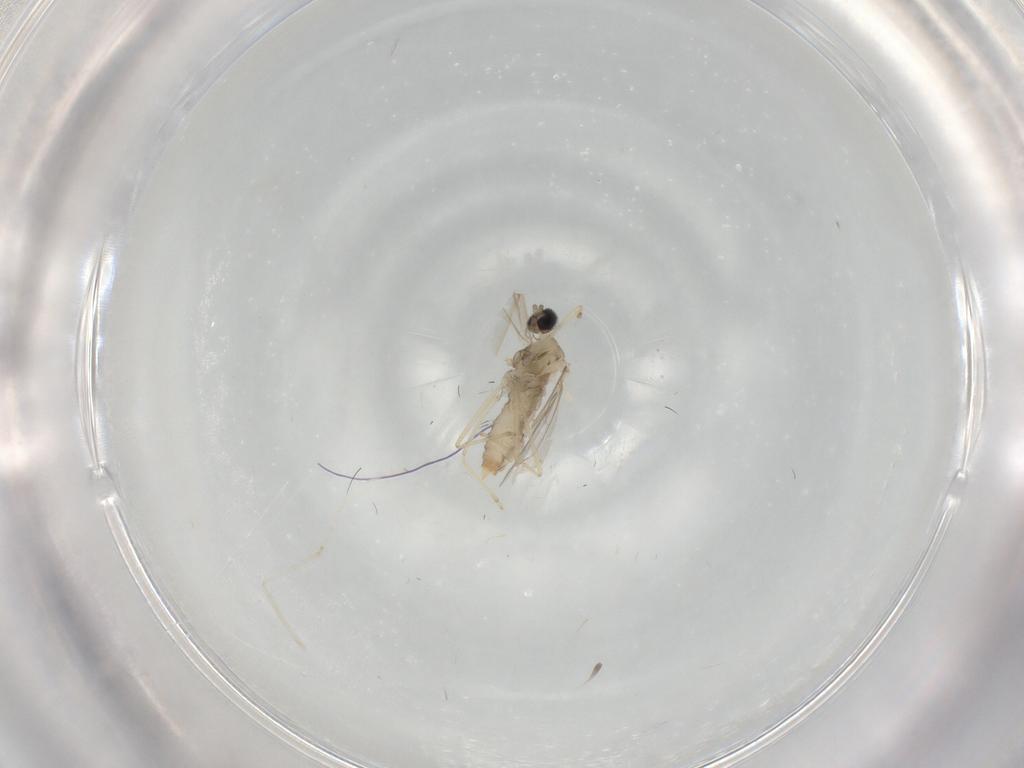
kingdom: Animalia
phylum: Arthropoda
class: Insecta
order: Diptera
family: Cecidomyiidae
